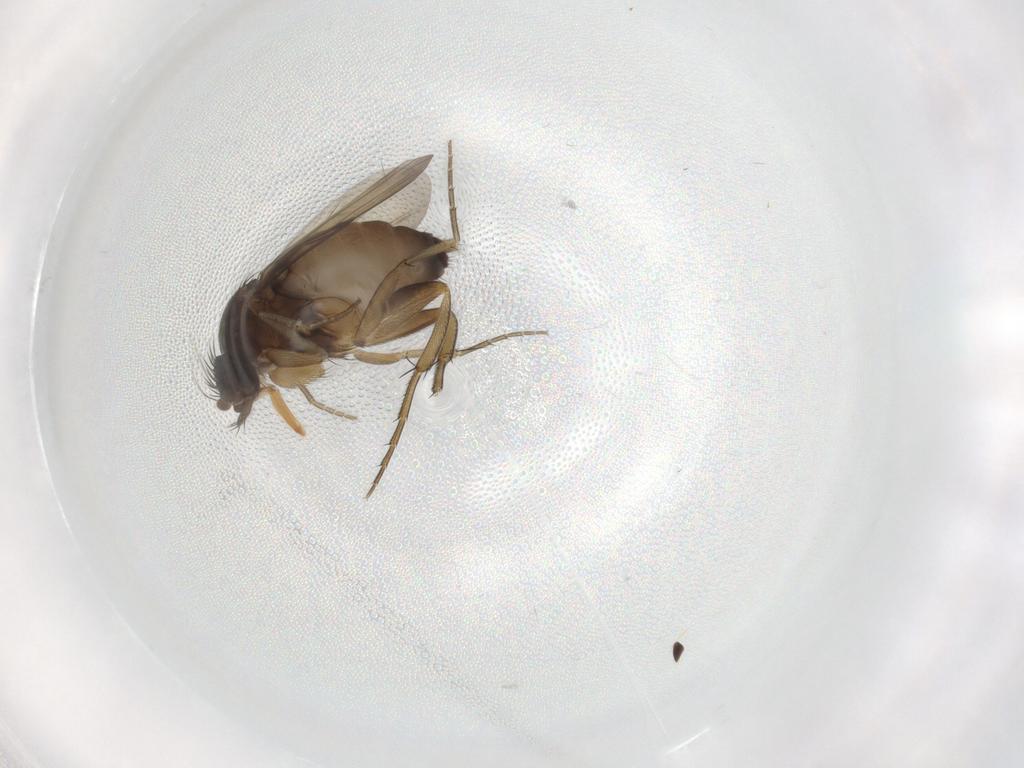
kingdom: Animalia
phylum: Arthropoda
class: Insecta
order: Diptera
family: Phoridae
